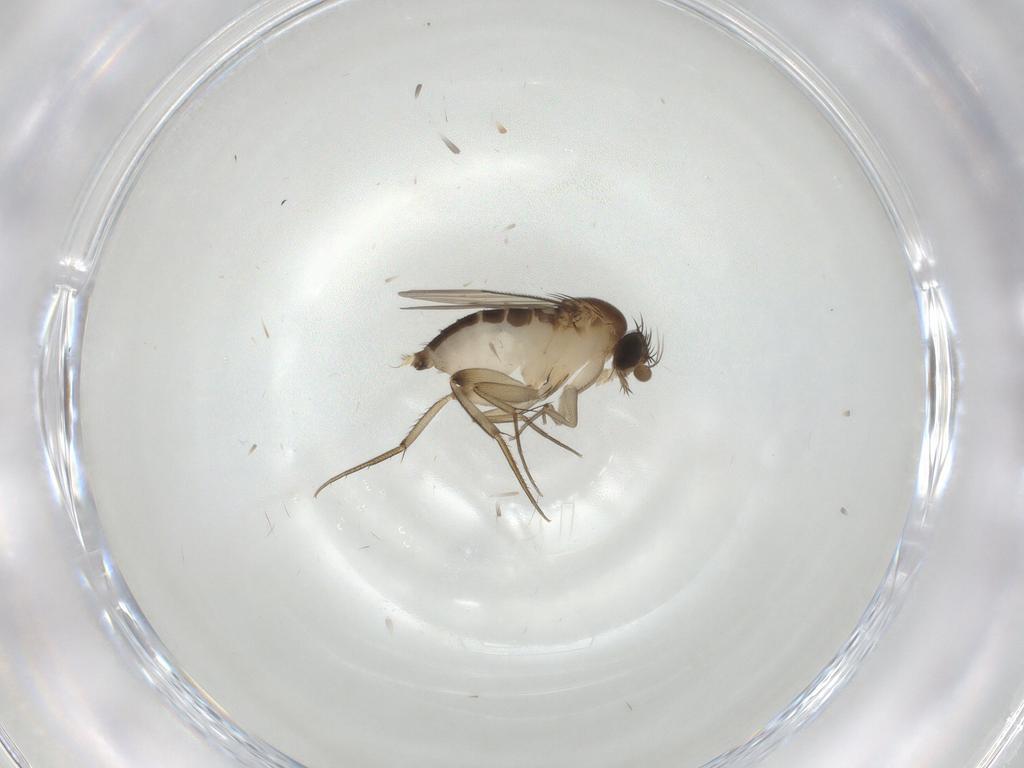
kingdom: Animalia
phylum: Arthropoda
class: Insecta
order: Diptera
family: Phoridae
